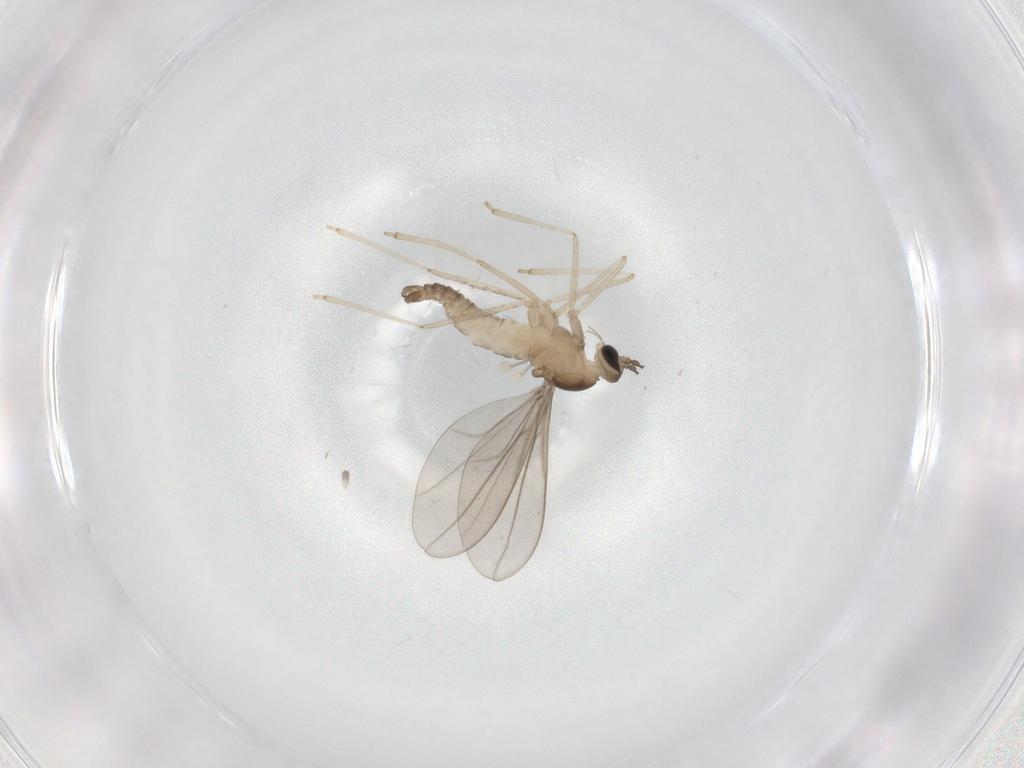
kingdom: Animalia
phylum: Arthropoda
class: Insecta
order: Diptera
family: Cecidomyiidae
